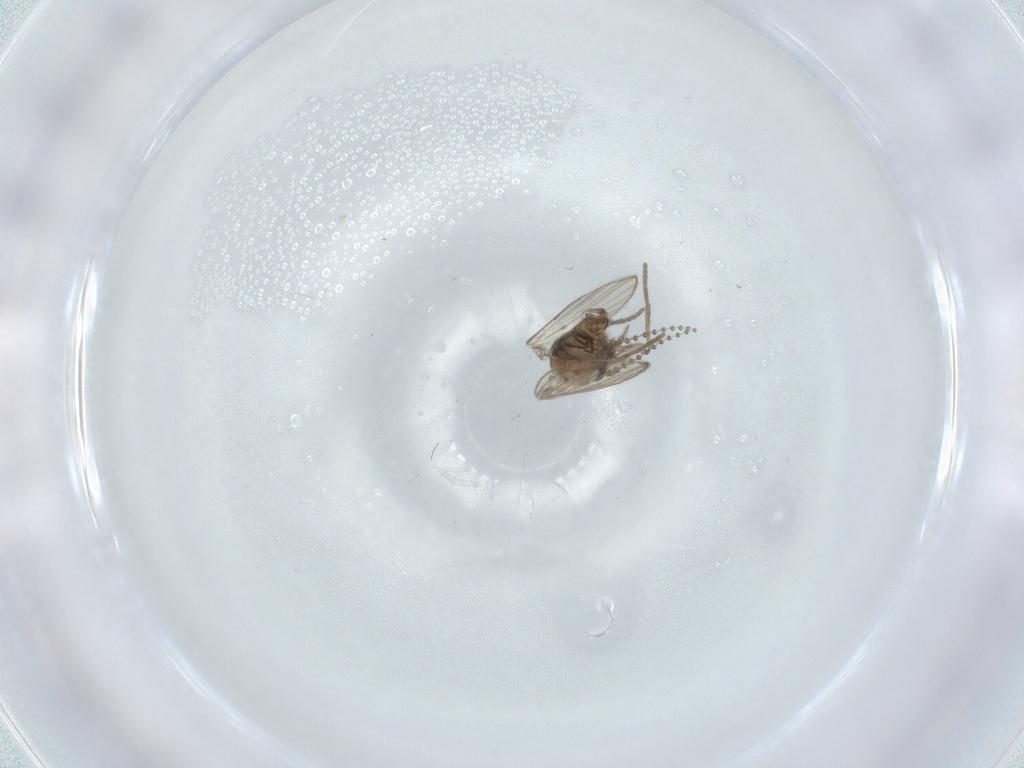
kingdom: Animalia
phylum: Arthropoda
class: Insecta
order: Diptera
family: Psychodidae
